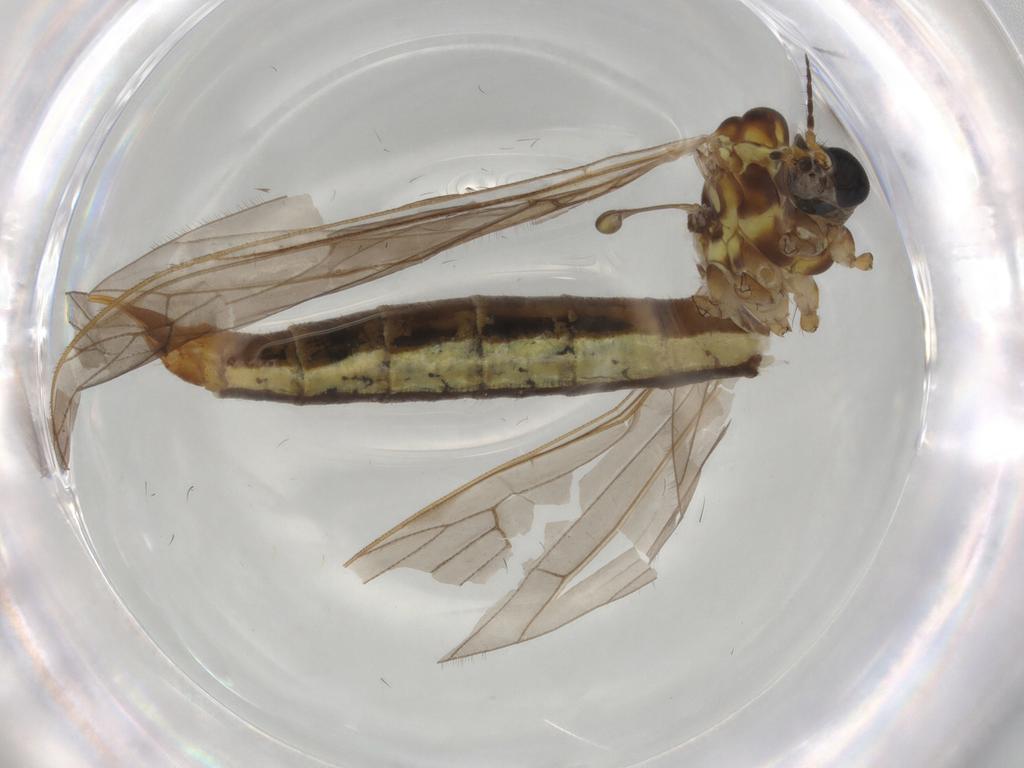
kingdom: Animalia
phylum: Arthropoda
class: Insecta
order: Diptera
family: Limoniidae
